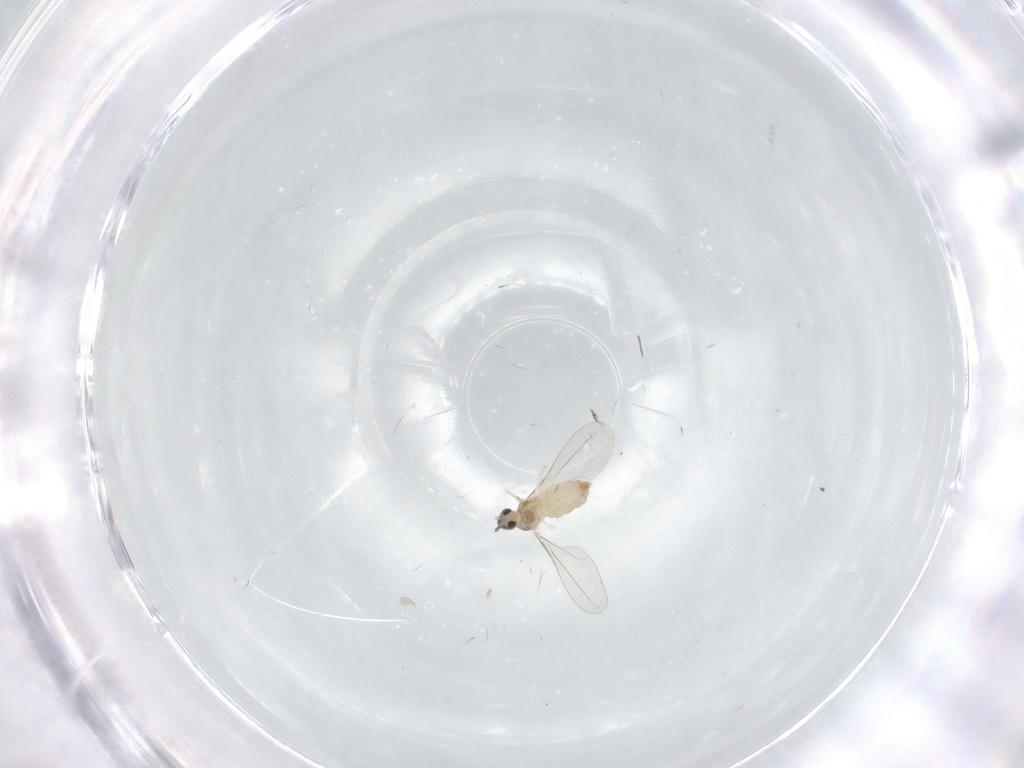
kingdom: Animalia
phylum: Arthropoda
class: Insecta
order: Diptera
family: Cecidomyiidae
